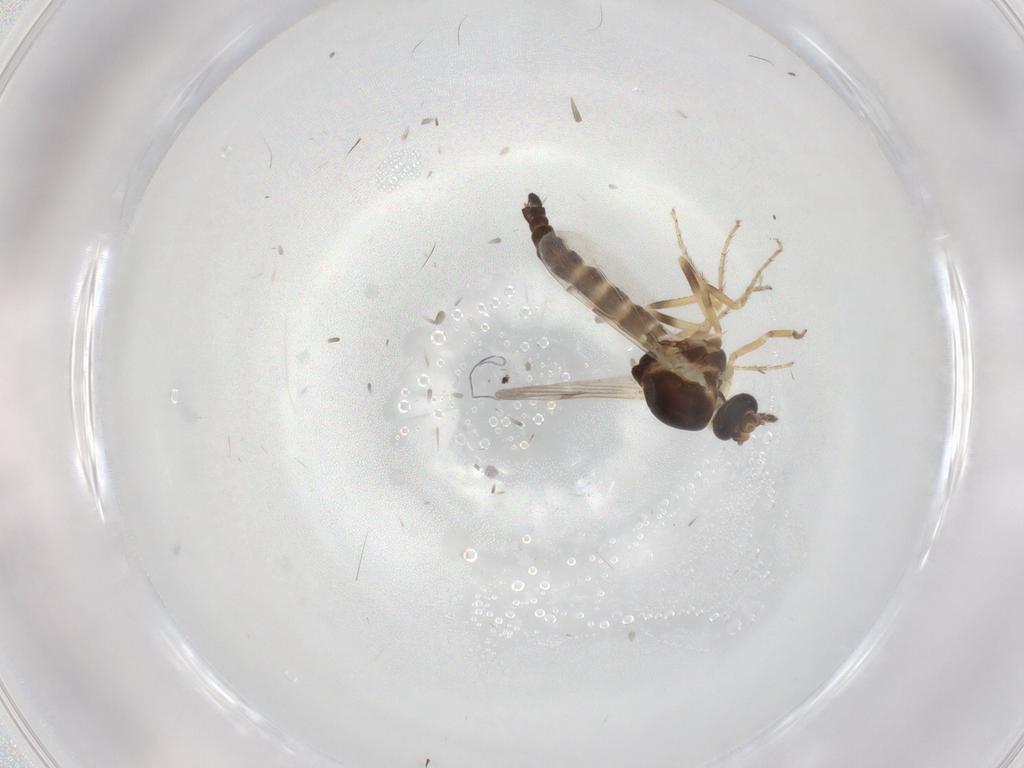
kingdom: Animalia
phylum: Arthropoda
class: Insecta
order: Diptera
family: Ceratopogonidae
